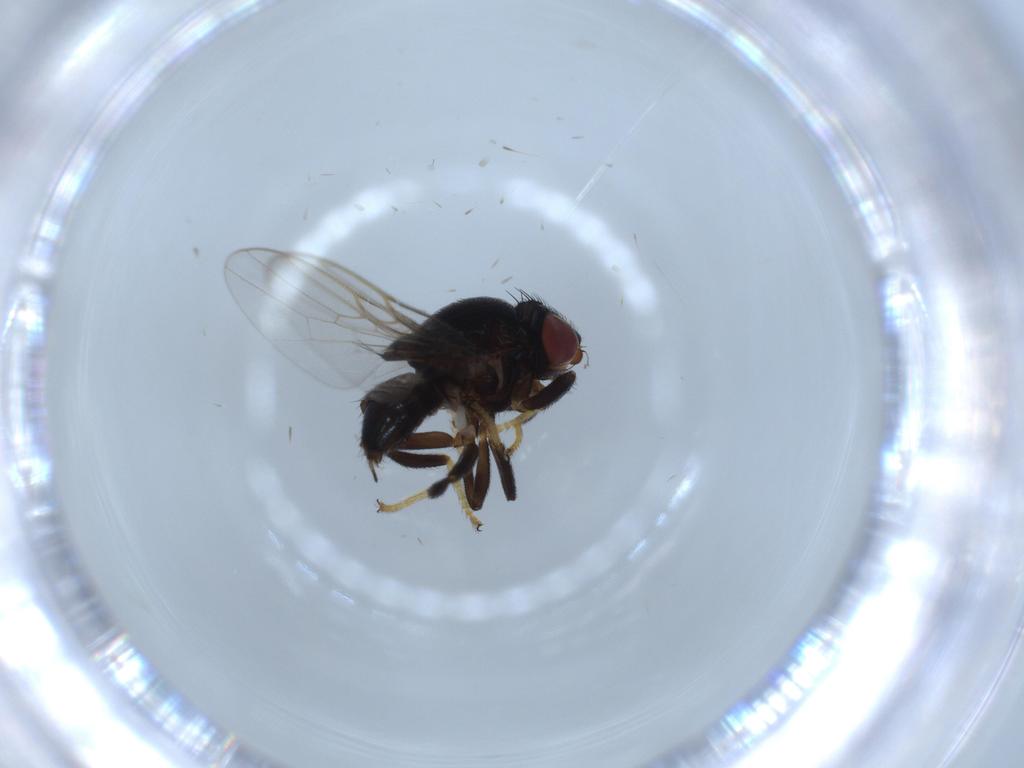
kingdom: Animalia
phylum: Arthropoda
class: Insecta
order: Diptera
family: Chloropidae
